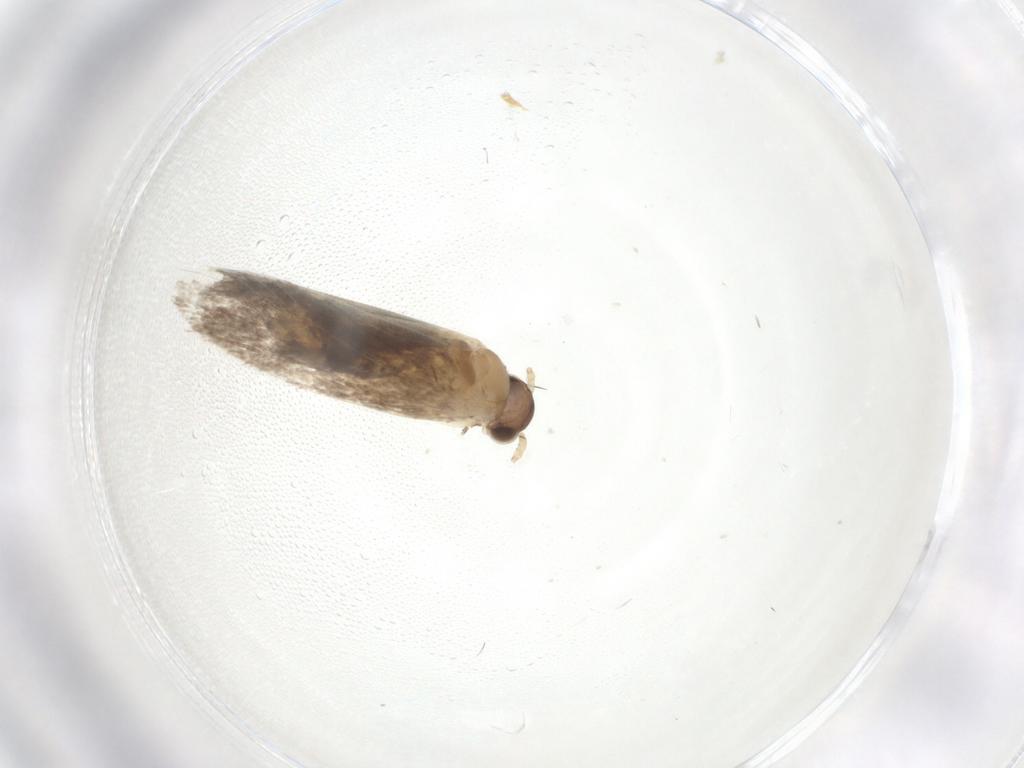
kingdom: Animalia
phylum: Arthropoda
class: Insecta
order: Lepidoptera
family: Dryadaulidae
